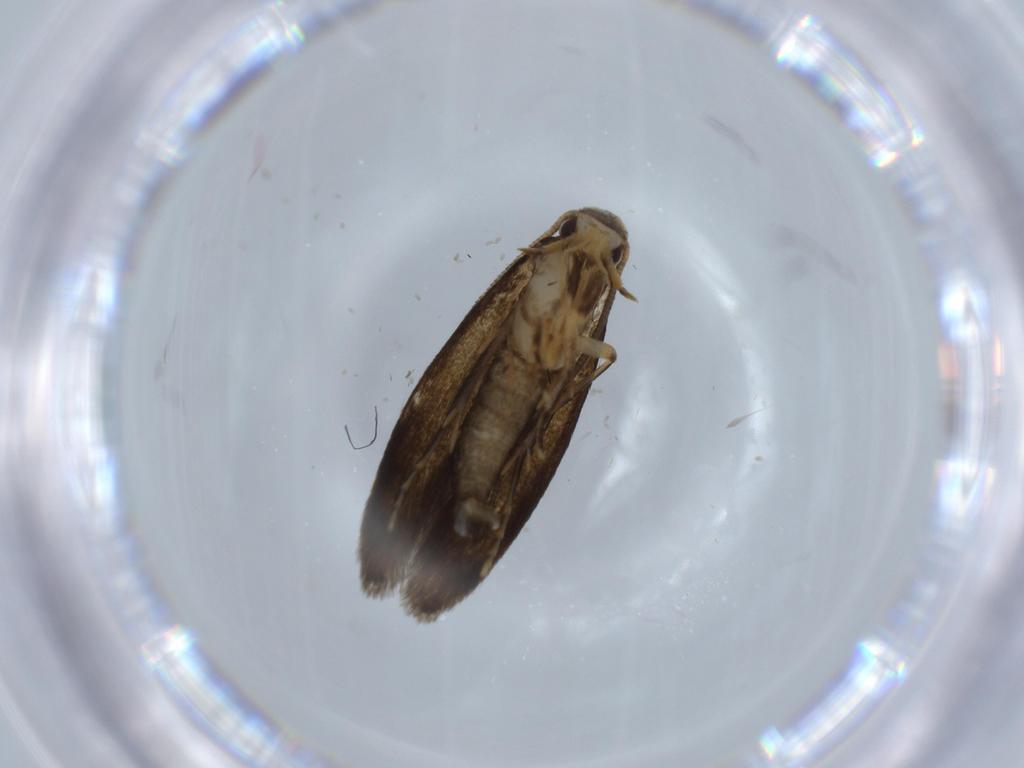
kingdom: Animalia
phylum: Arthropoda
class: Insecta
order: Lepidoptera
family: Tineidae
